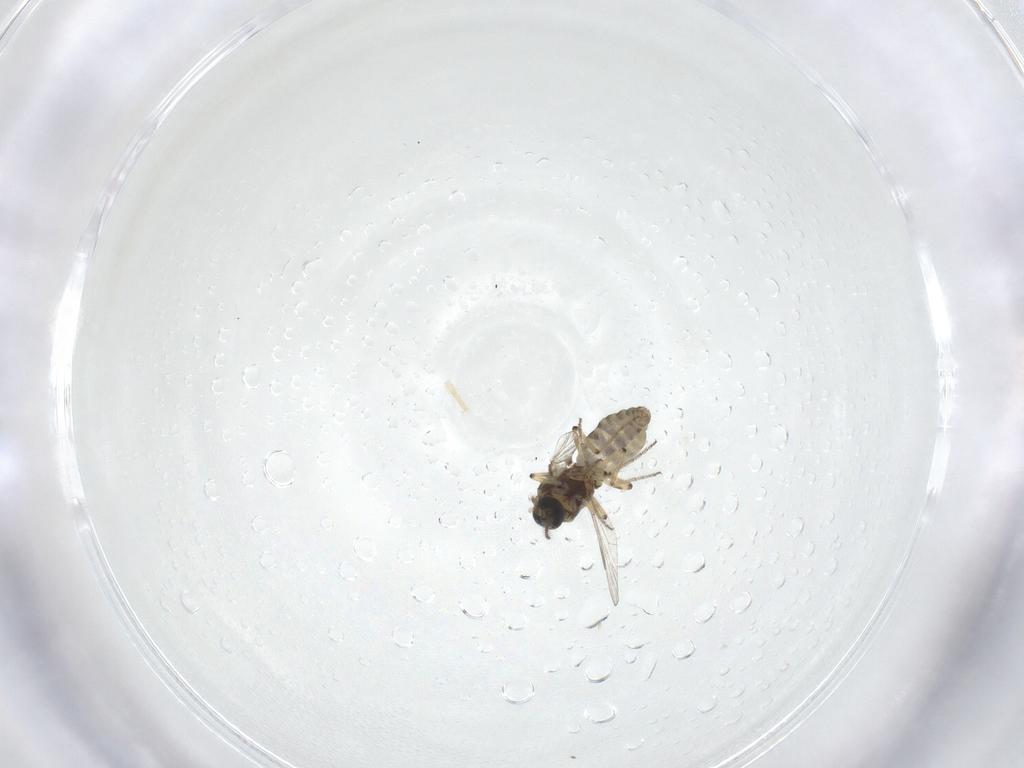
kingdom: Animalia
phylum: Arthropoda
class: Insecta
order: Diptera
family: Ceratopogonidae
